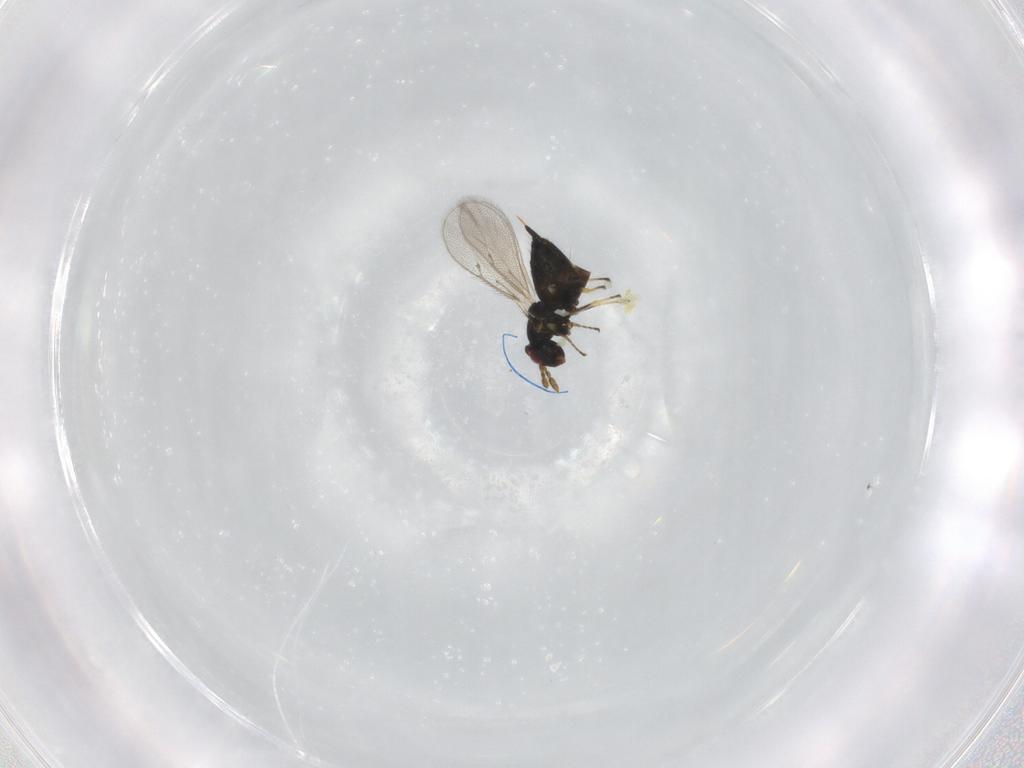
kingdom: Animalia
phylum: Arthropoda
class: Insecta
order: Hymenoptera
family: Eulophidae
